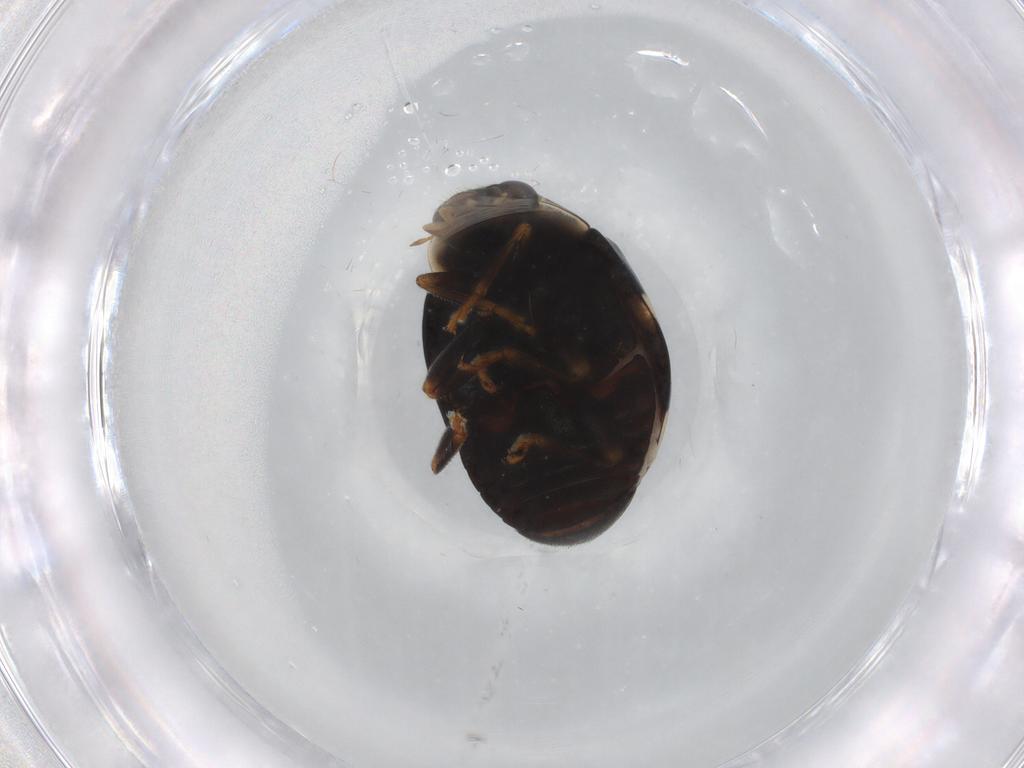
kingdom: Animalia
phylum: Arthropoda
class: Insecta
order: Coleoptera
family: Coccinellidae
